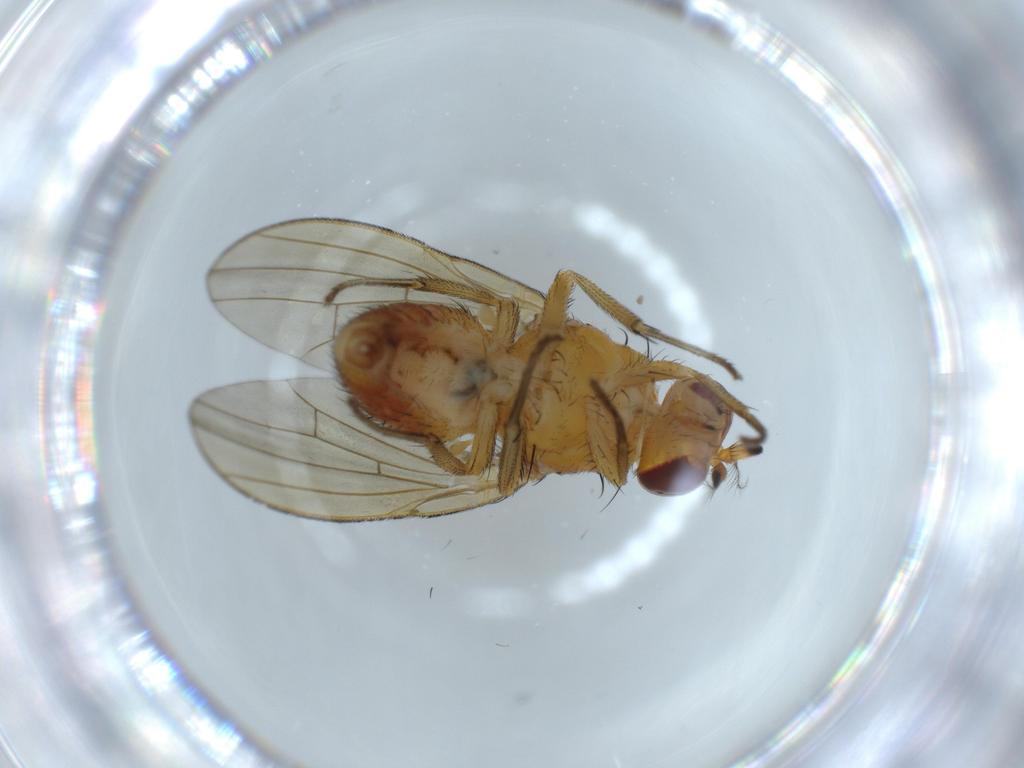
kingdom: Animalia
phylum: Arthropoda
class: Insecta
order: Diptera
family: Lauxaniidae
